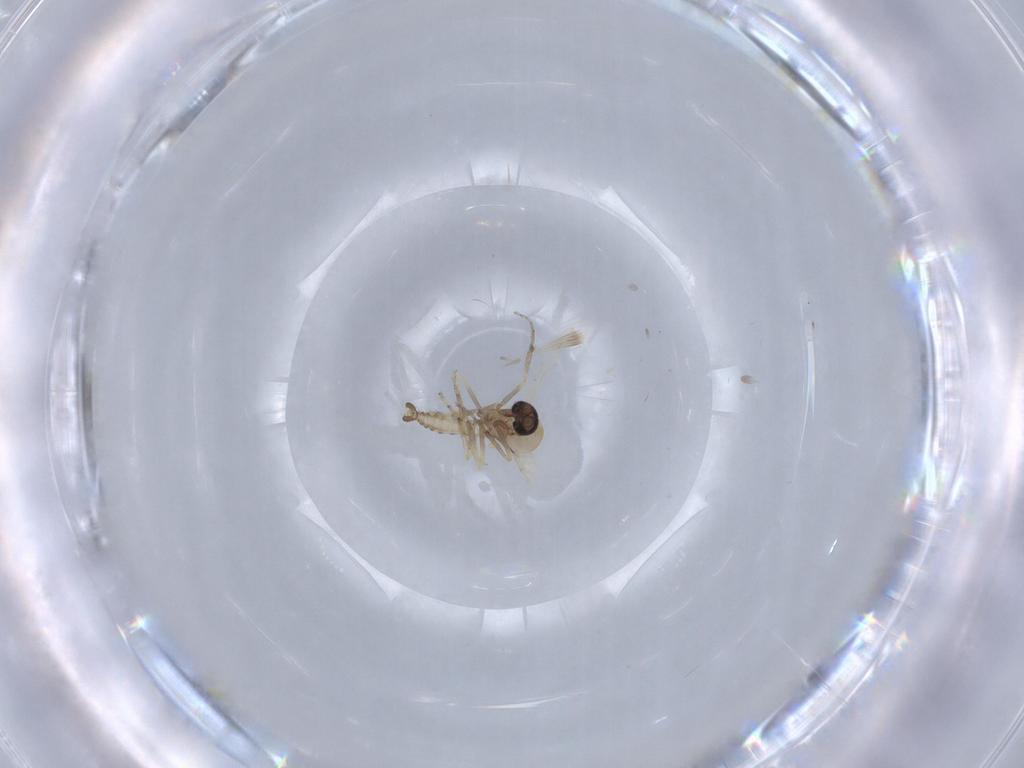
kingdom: Animalia
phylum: Arthropoda
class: Insecta
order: Diptera
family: Ceratopogonidae
